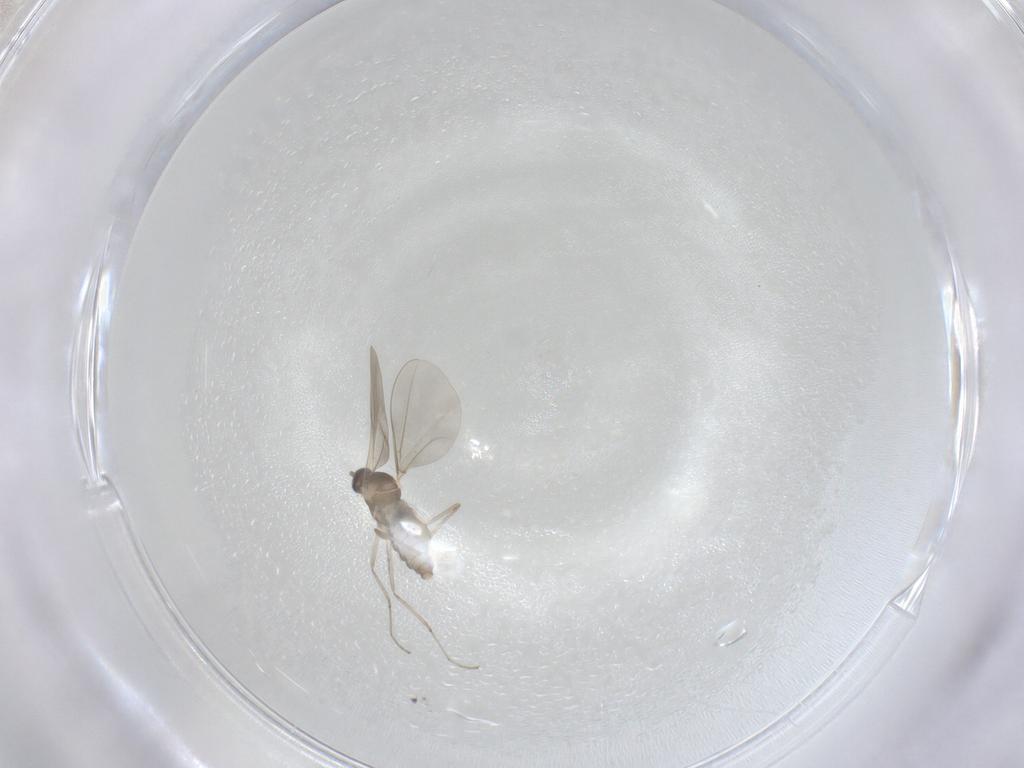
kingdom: Animalia
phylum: Arthropoda
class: Insecta
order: Diptera
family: Cecidomyiidae
